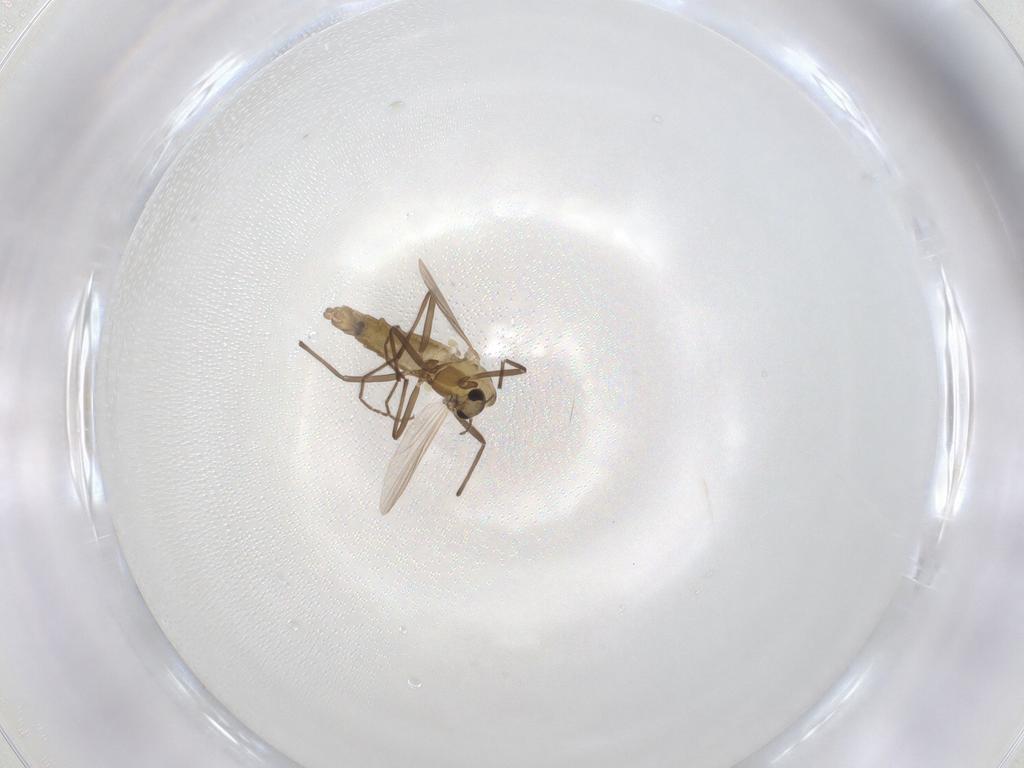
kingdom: Animalia
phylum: Arthropoda
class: Insecta
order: Diptera
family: Chironomidae
